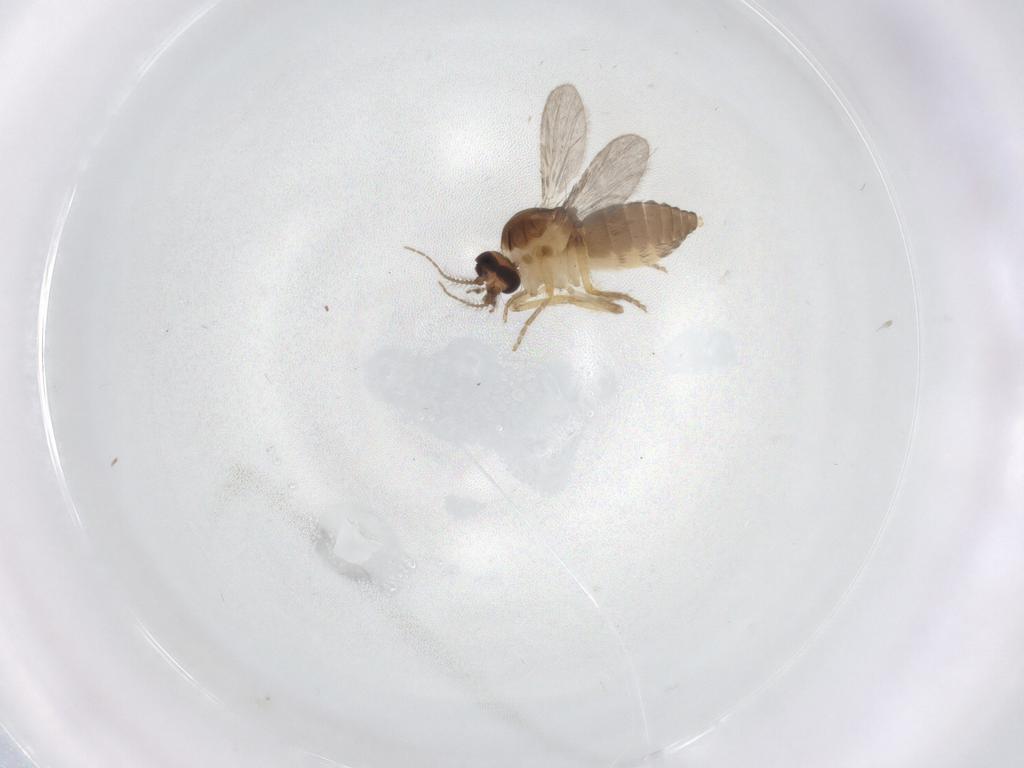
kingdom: Animalia
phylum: Arthropoda
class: Insecta
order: Diptera
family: Ceratopogonidae
